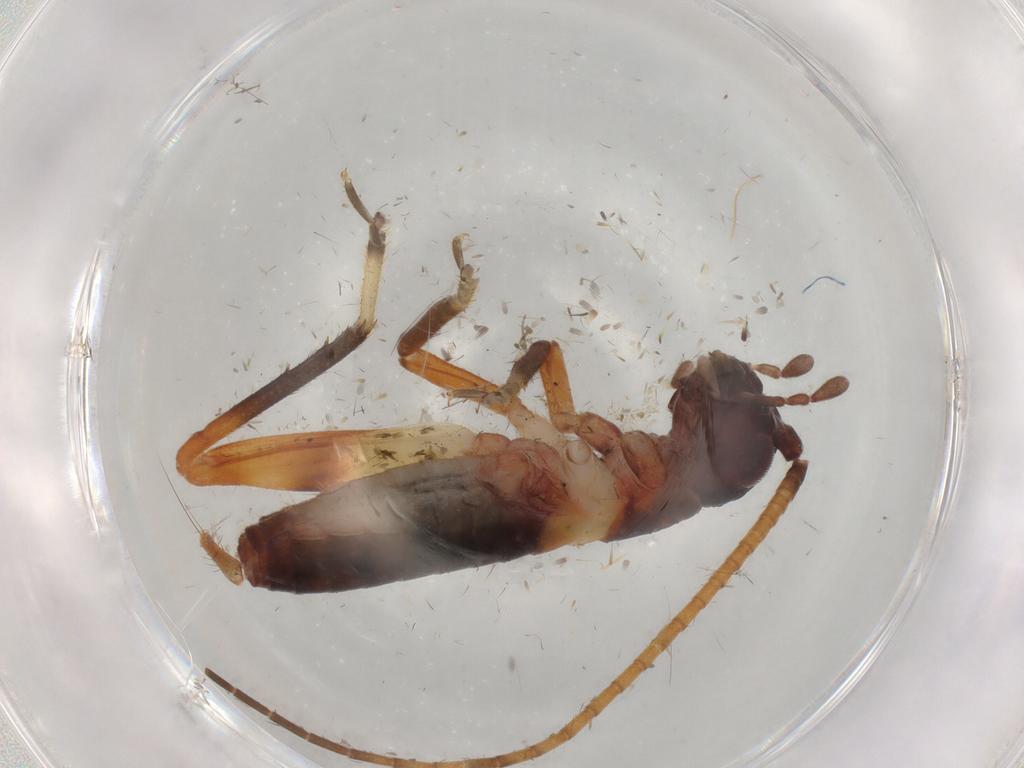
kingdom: Animalia
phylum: Arthropoda
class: Insecta
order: Orthoptera
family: Gryllidae
